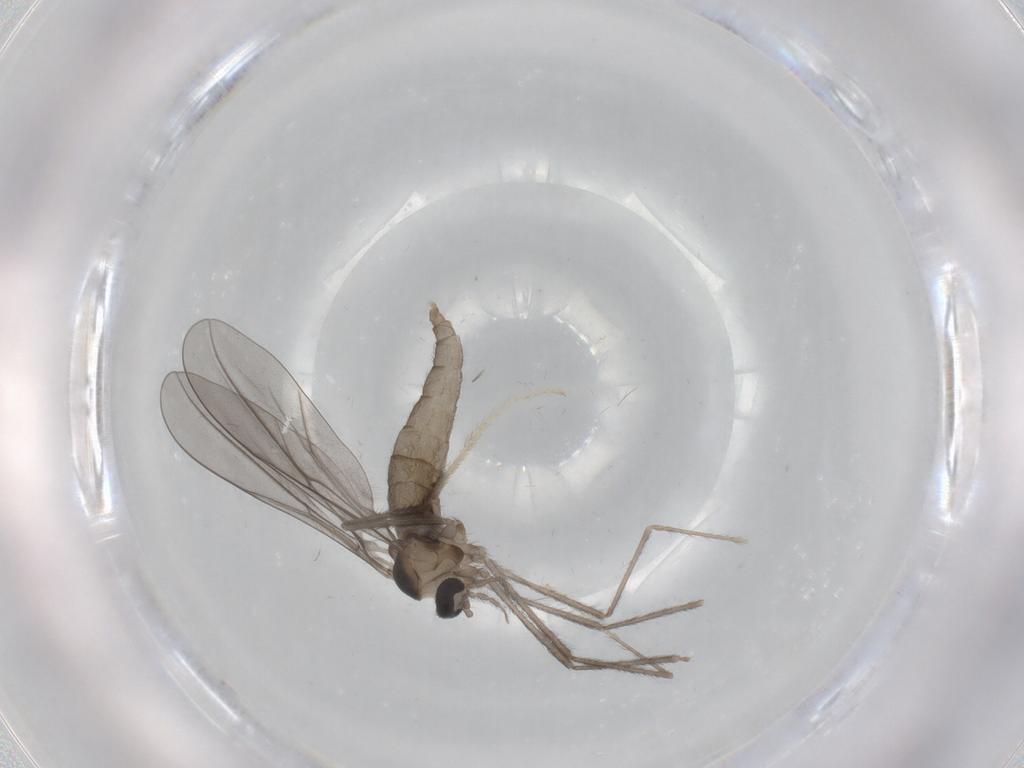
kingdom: Animalia
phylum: Arthropoda
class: Insecta
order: Diptera
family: Cecidomyiidae
